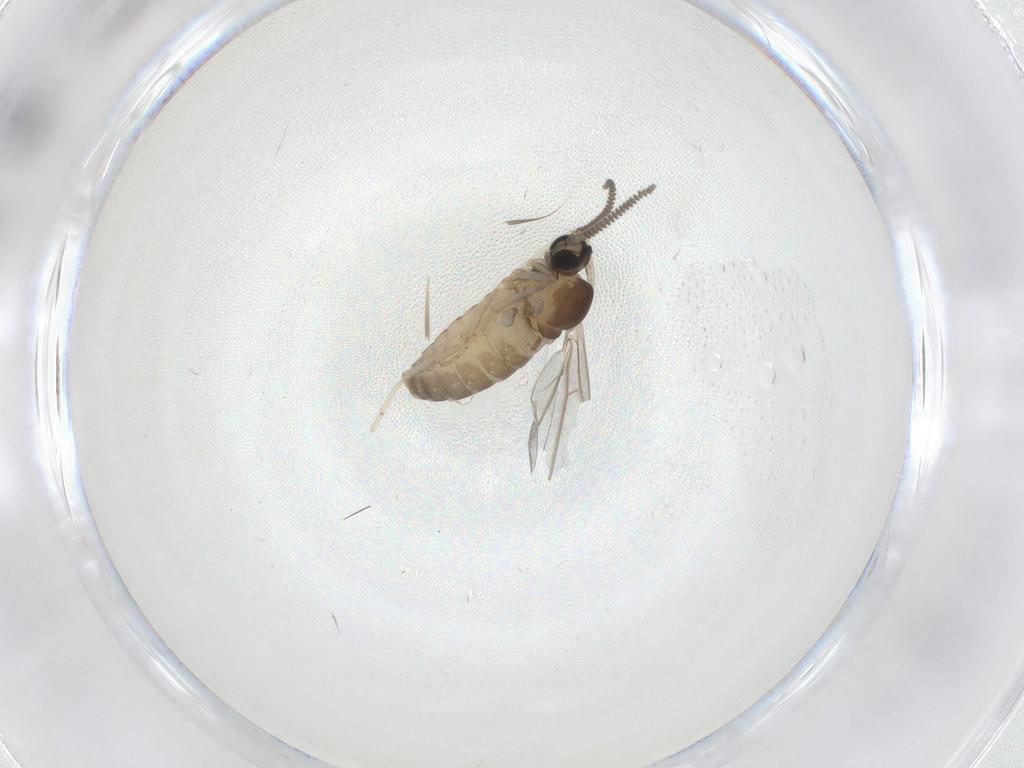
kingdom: Animalia
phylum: Arthropoda
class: Insecta
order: Diptera
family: Cecidomyiidae
